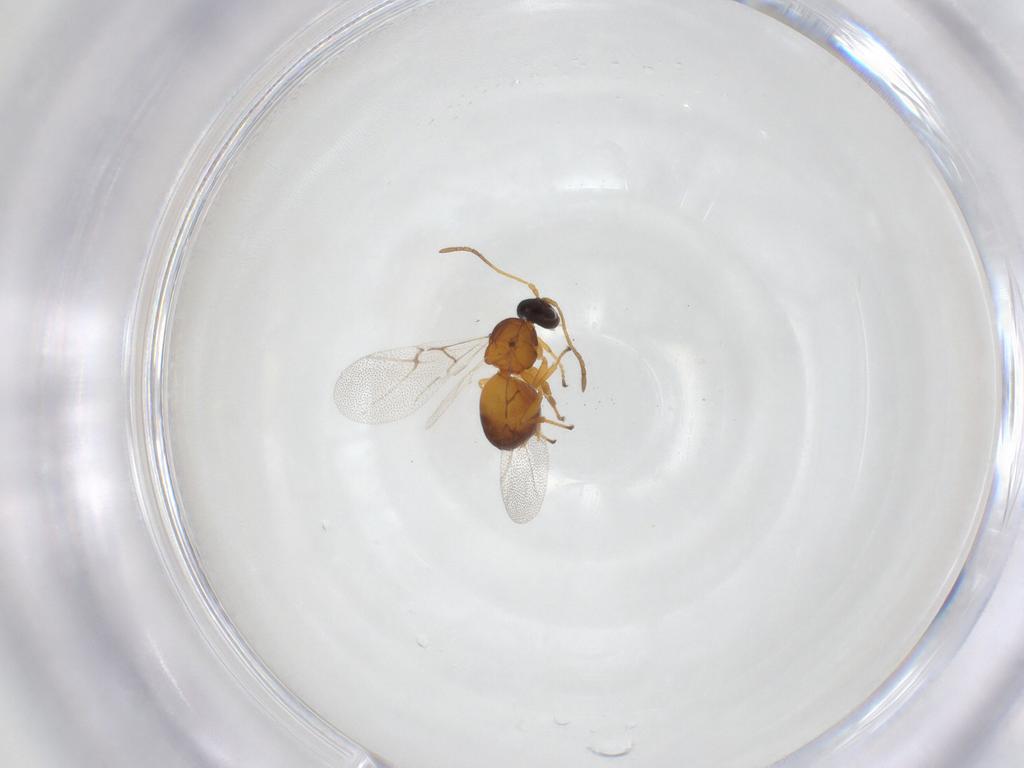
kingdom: Animalia
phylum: Arthropoda
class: Insecta
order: Hymenoptera
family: Cynipidae
